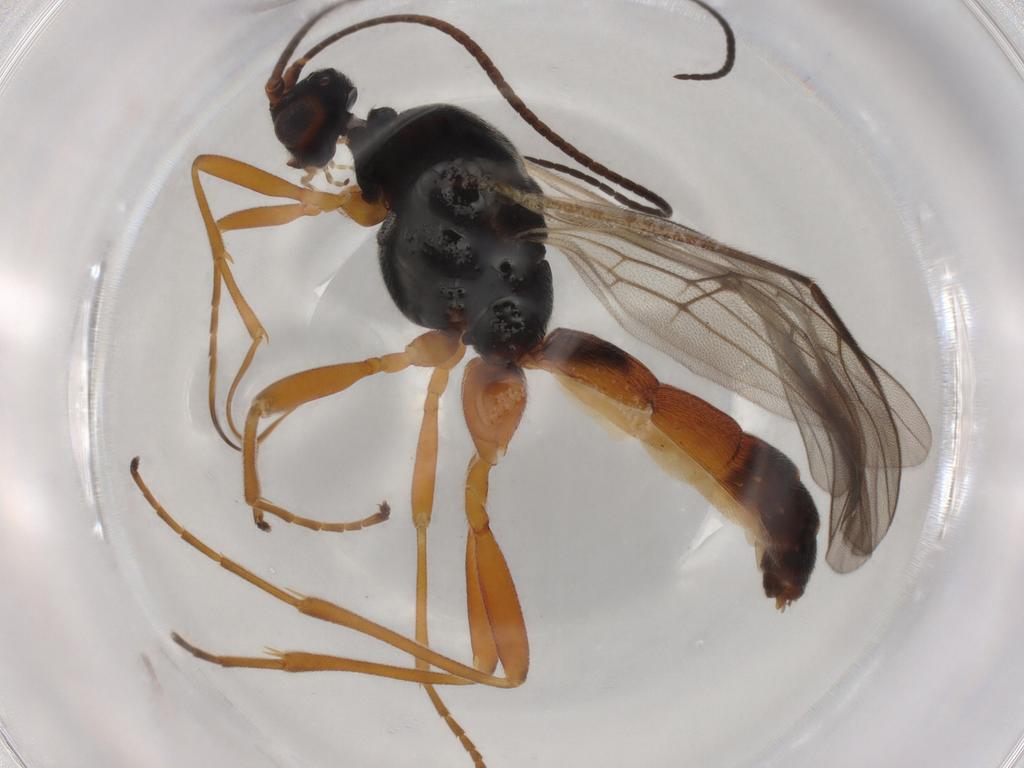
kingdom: Animalia
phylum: Arthropoda
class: Insecta
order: Hymenoptera
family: Braconidae
